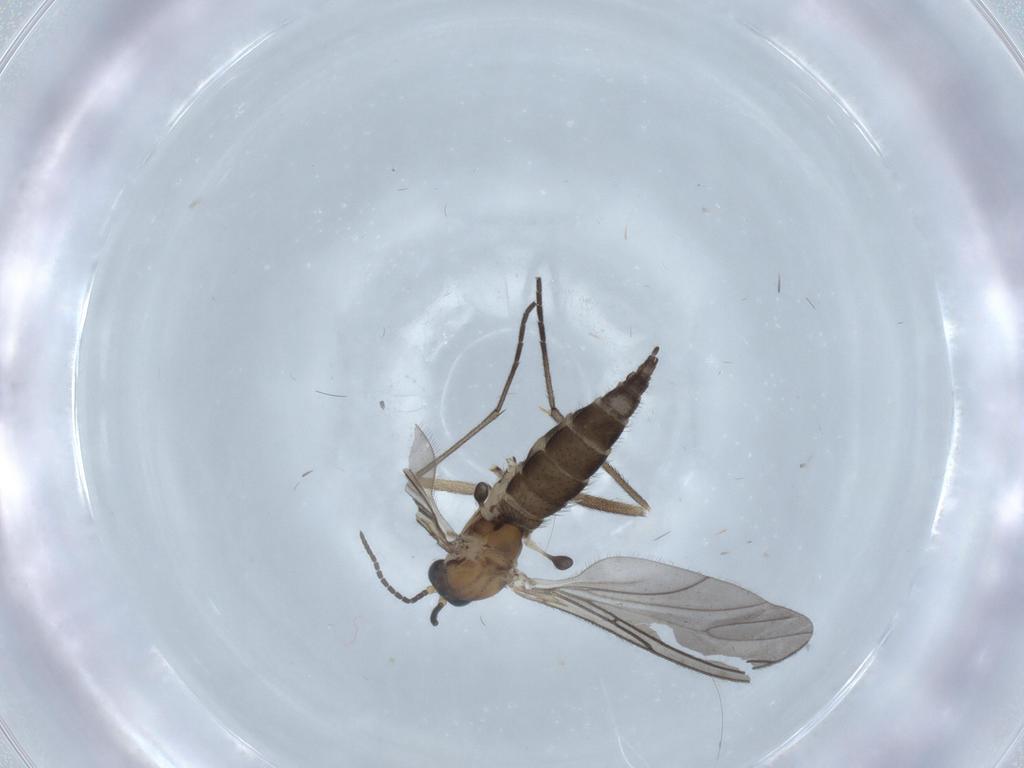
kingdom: Animalia
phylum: Arthropoda
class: Insecta
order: Diptera
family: Sciaridae
